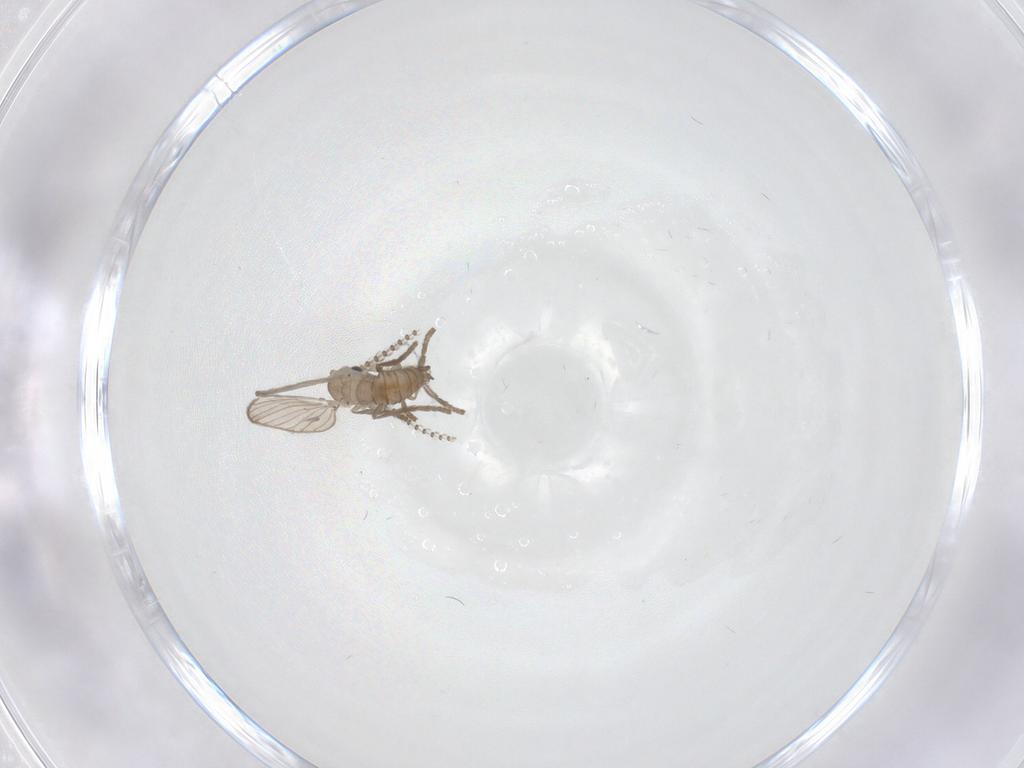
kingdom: Animalia
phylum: Arthropoda
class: Insecta
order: Diptera
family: Psychodidae
